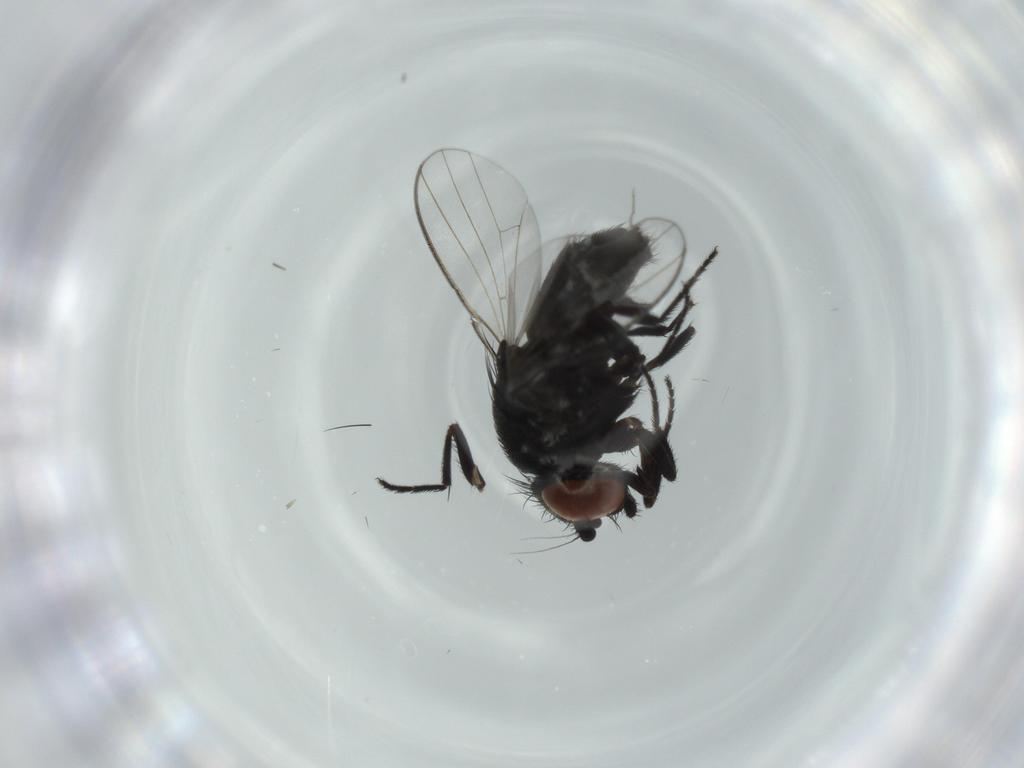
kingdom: Animalia
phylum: Arthropoda
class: Insecta
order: Diptera
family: Milichiidae
